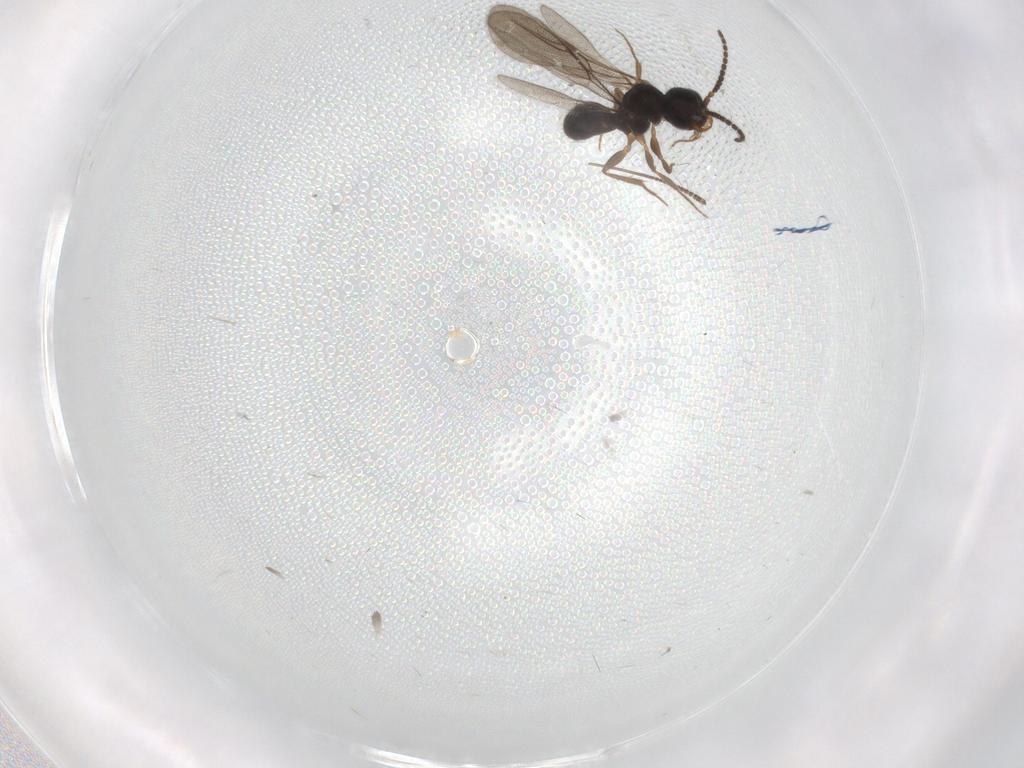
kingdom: Animalia
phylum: Arthropoda
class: Insecta
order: Hymenoptera
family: Bethylidae
